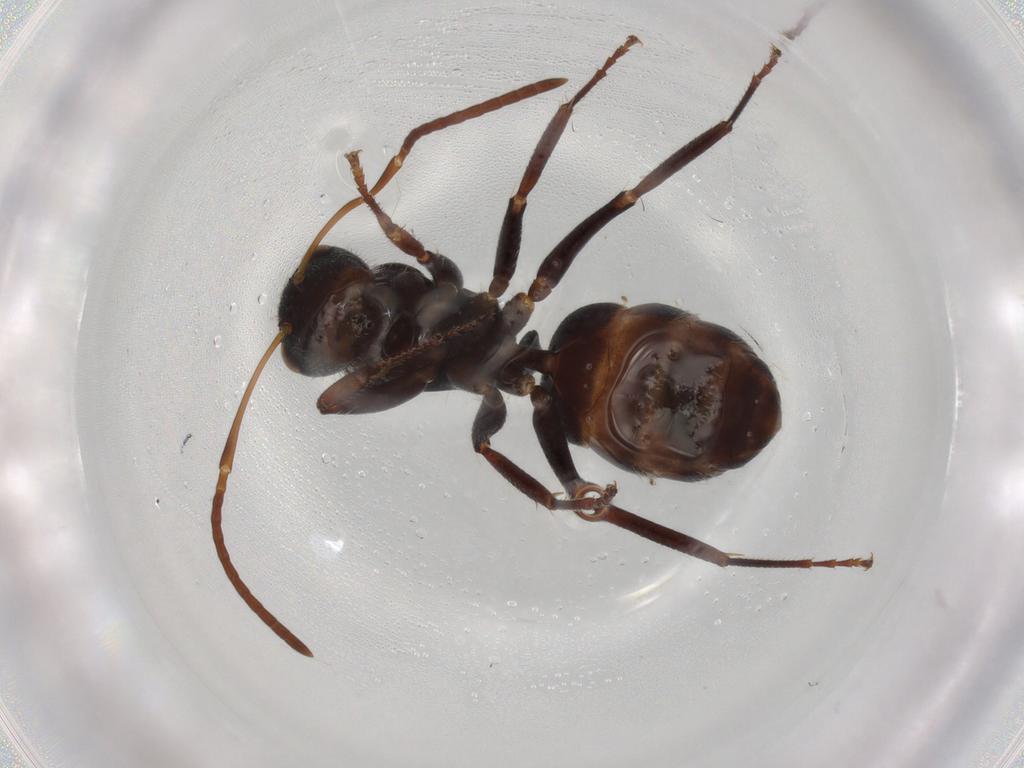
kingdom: Animalia
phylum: Arthropoda
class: Insecta
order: Hymenoptera
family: Formicidae
